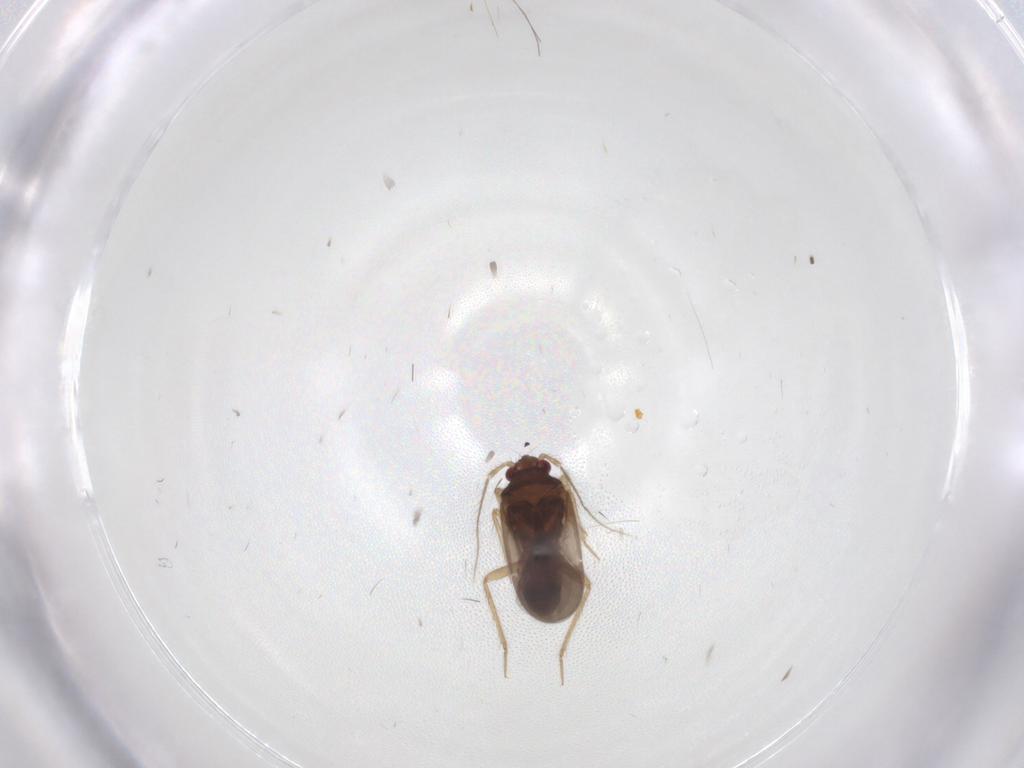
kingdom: Animalia
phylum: Arthropoda
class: Insecta
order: Hemiptera
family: Ceratocombidae
